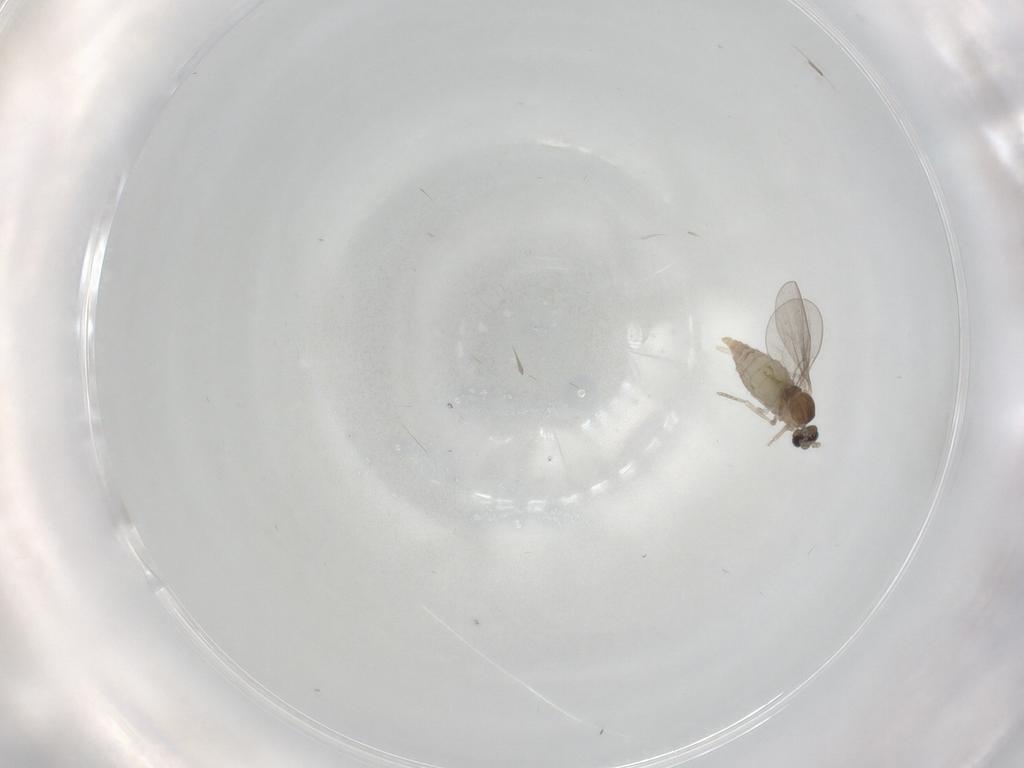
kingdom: Animalia
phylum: Arthropoda
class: Insecta
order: Diptera
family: Cecidomyiidae
